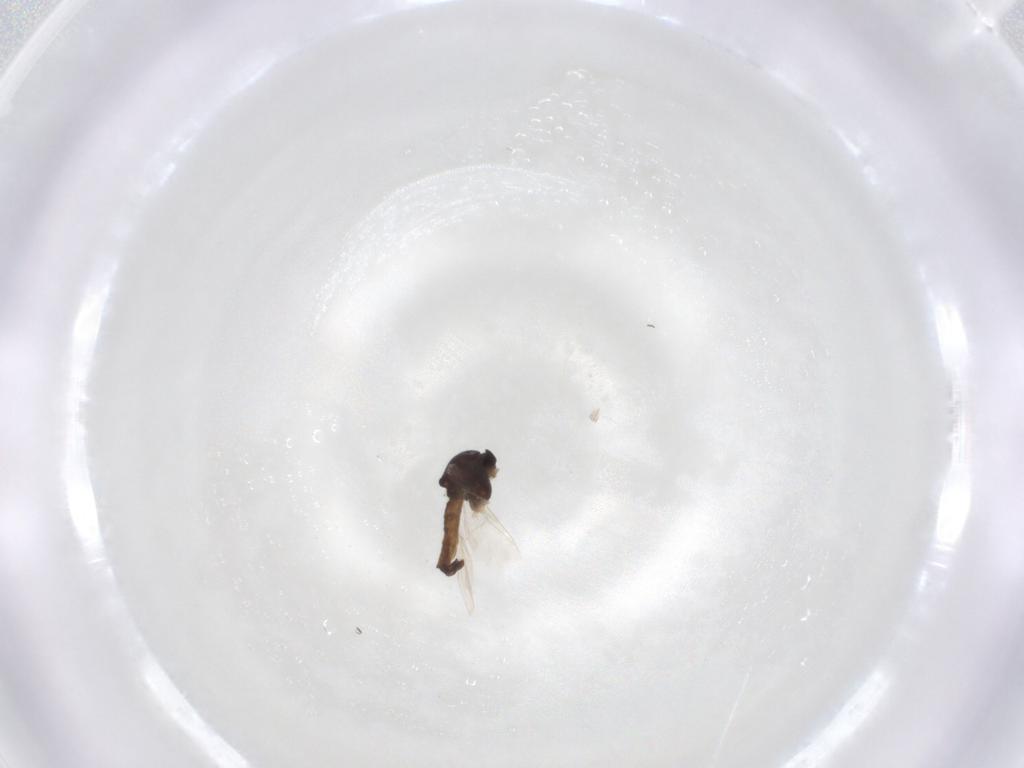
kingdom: Animalia
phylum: Arthropoda
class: Insecta
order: Diptera
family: Chironomidae
